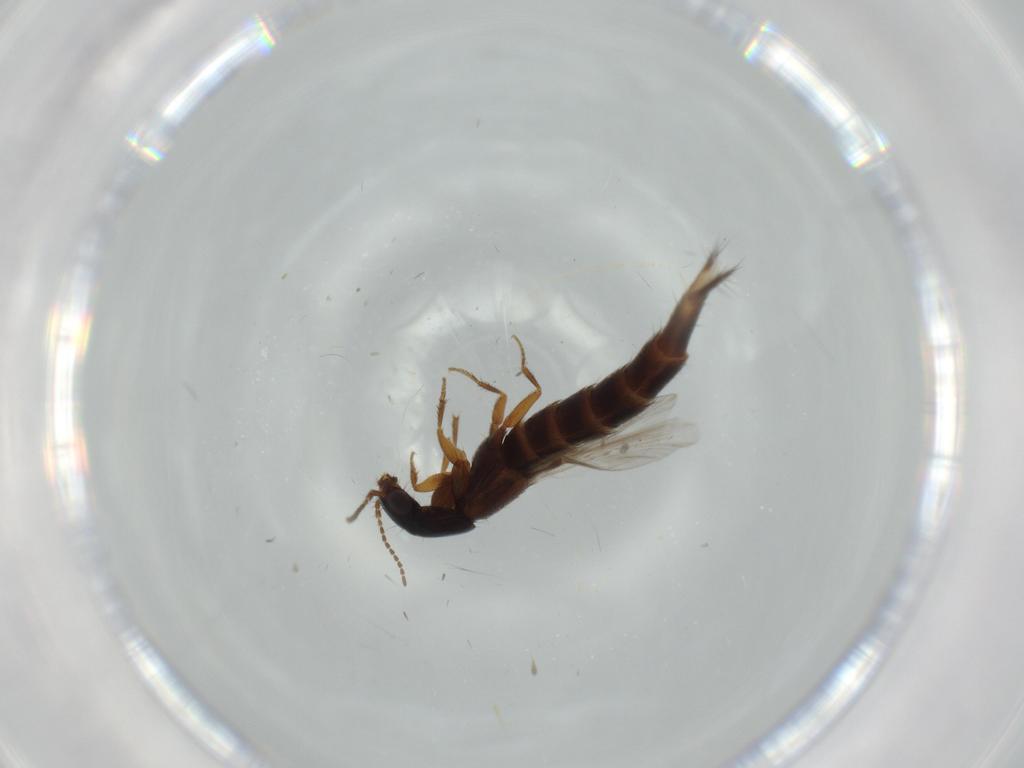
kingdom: Animalia
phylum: Arthropoda
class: Insecta
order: Coleoptera
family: Staphylinidae
